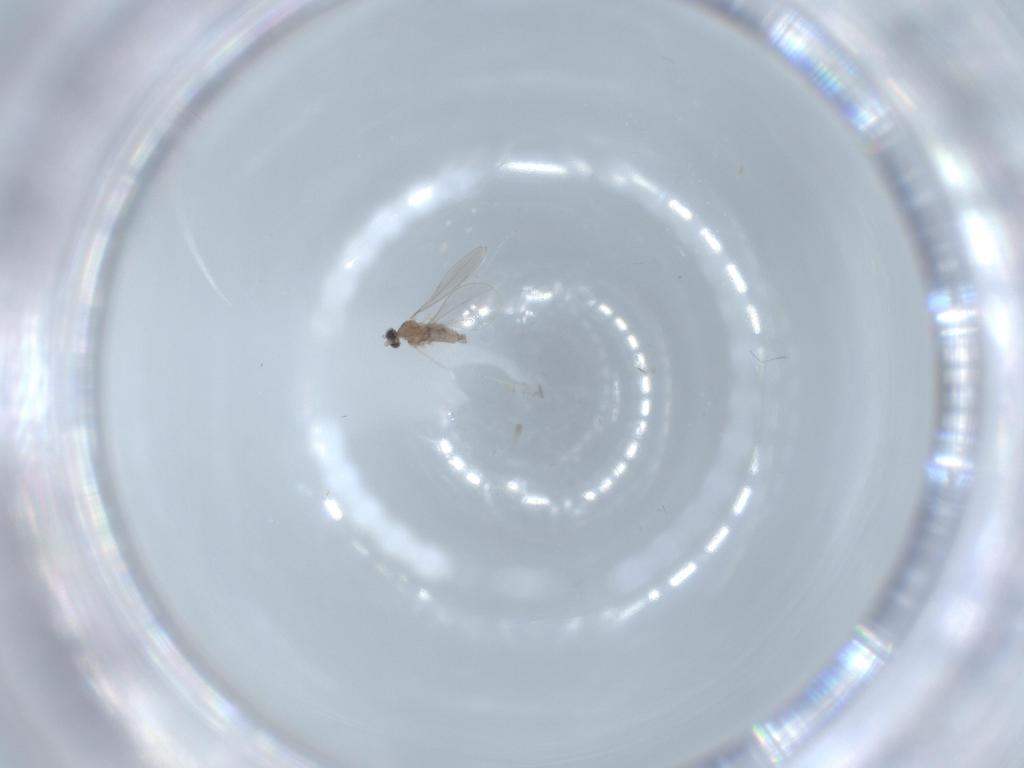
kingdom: Animalia
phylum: Arthropoda
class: Insecta
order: Diptera
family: Cecidomyiidae
